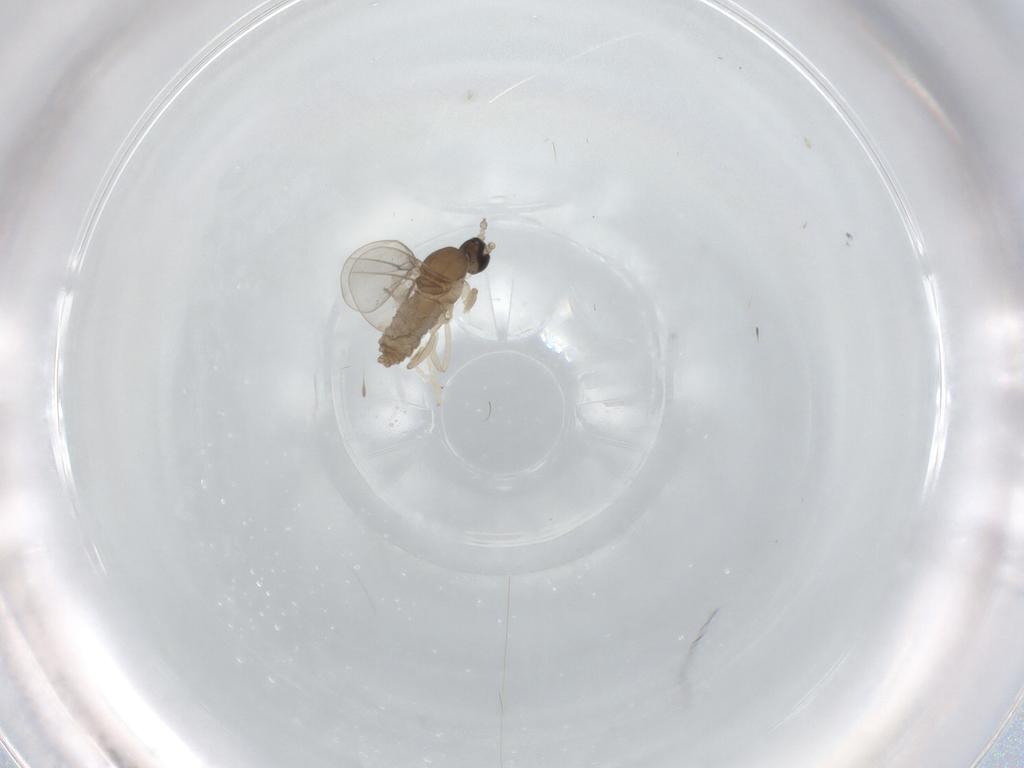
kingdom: Animalia
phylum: Arthropoda
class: Insecta
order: Diptera
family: Cecidomyiidae
